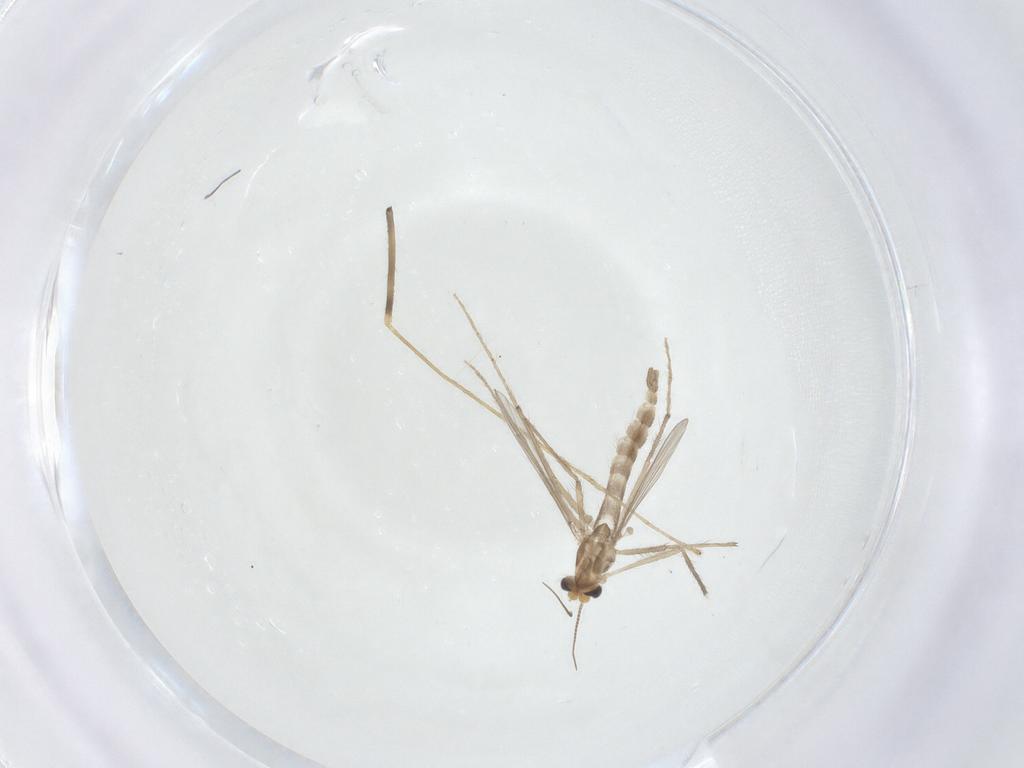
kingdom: Animalia
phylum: Arthropoda
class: Insecta
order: Diptera
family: Chironomidae
